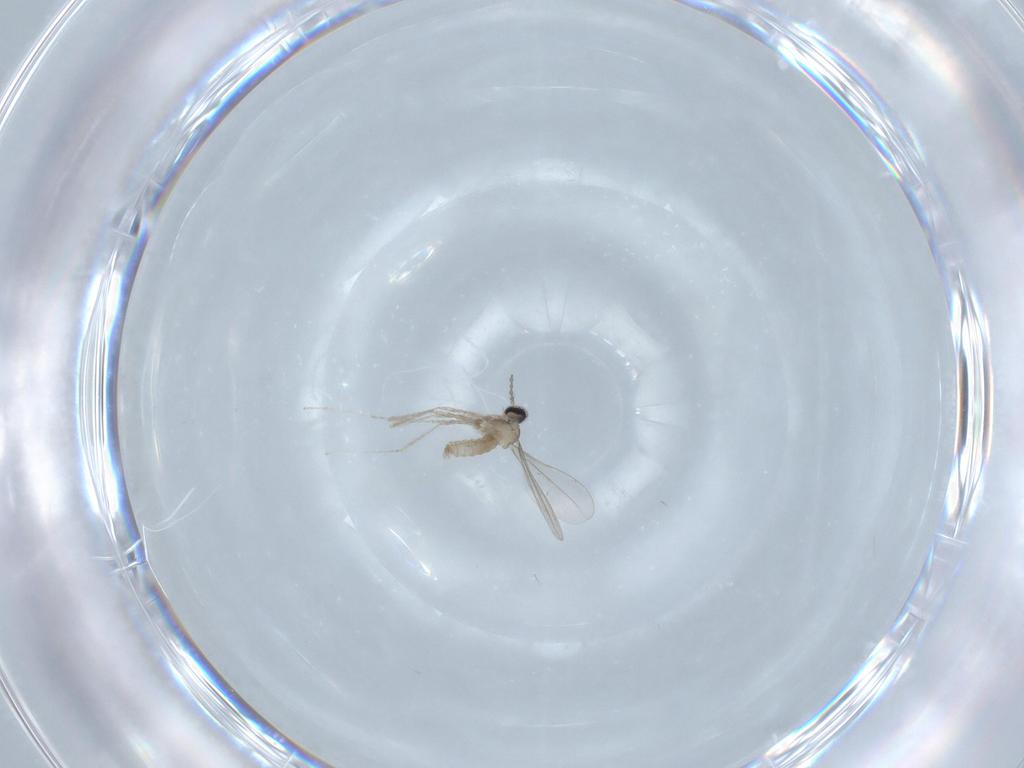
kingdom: Animalia
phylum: Arthropoda
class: Insecta
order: Diptera
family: Cecidomyiidae
